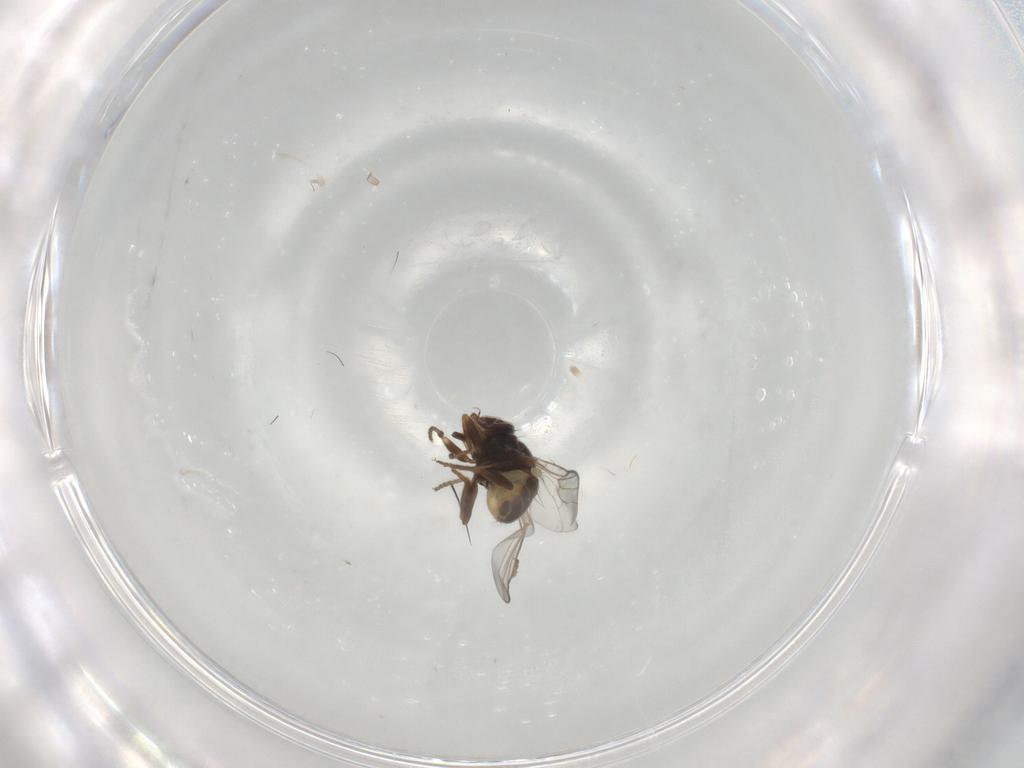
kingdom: Animalia
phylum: Arthropoda
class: Insecta
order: Diptera
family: Chloropidae
